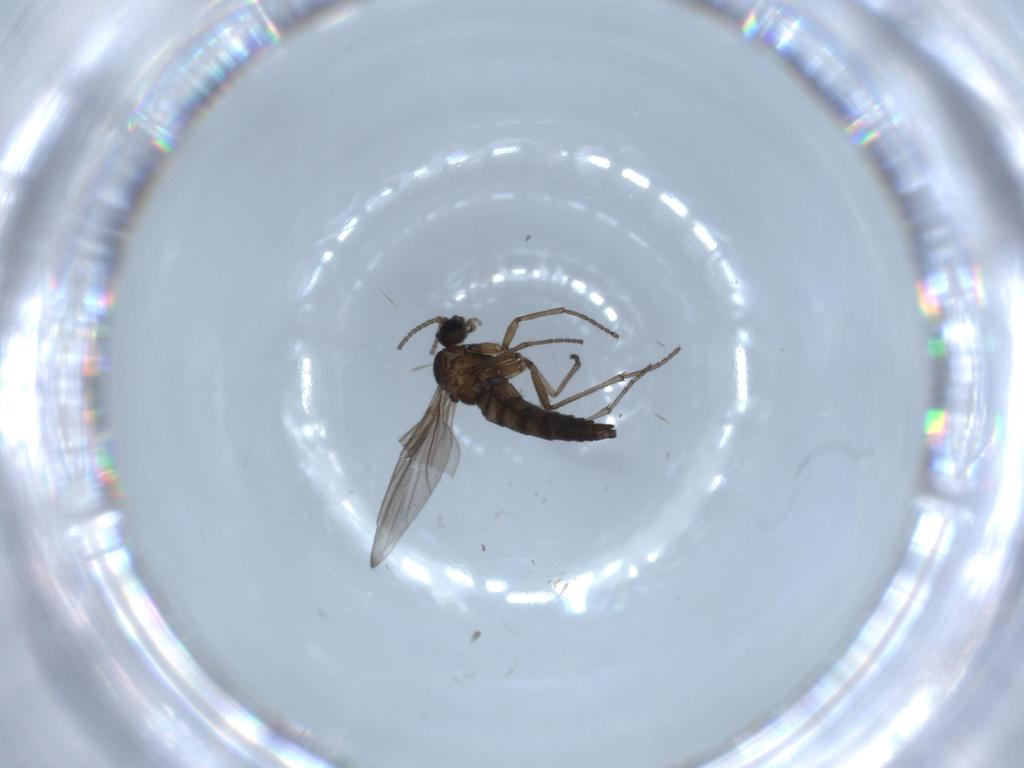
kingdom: Animalia
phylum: Arthropoda
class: Insecta
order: Diptera
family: Sciaridae
